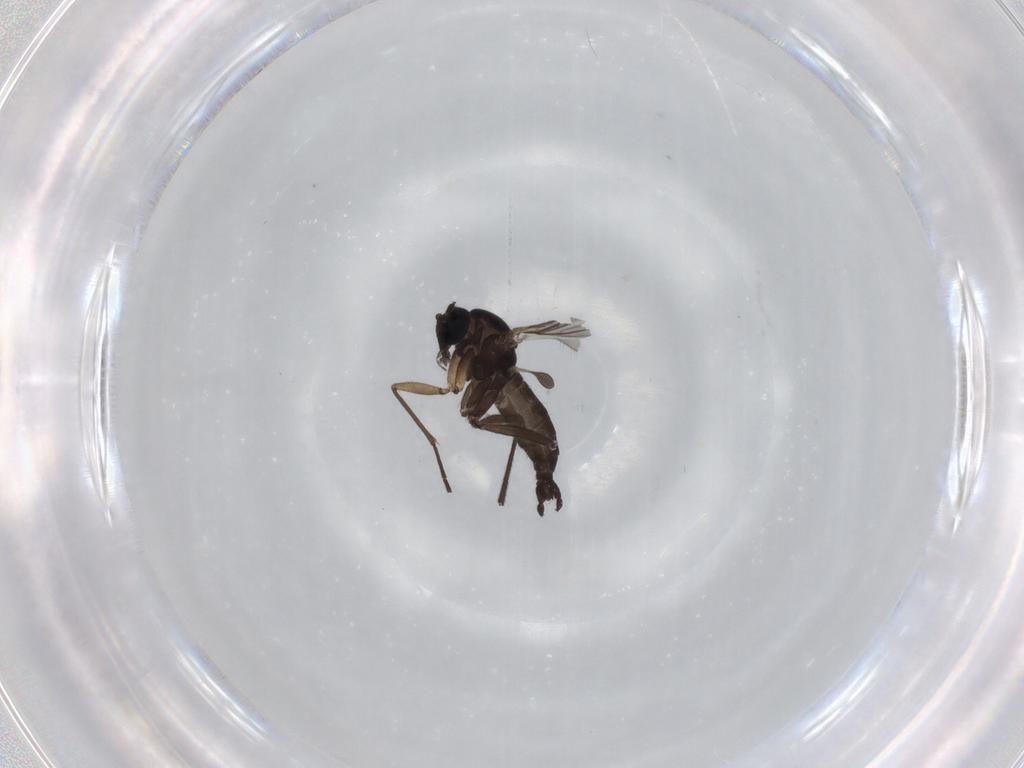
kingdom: Animalia
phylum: Arthropoda
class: Insecta
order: Diptera
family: Sciaridae
